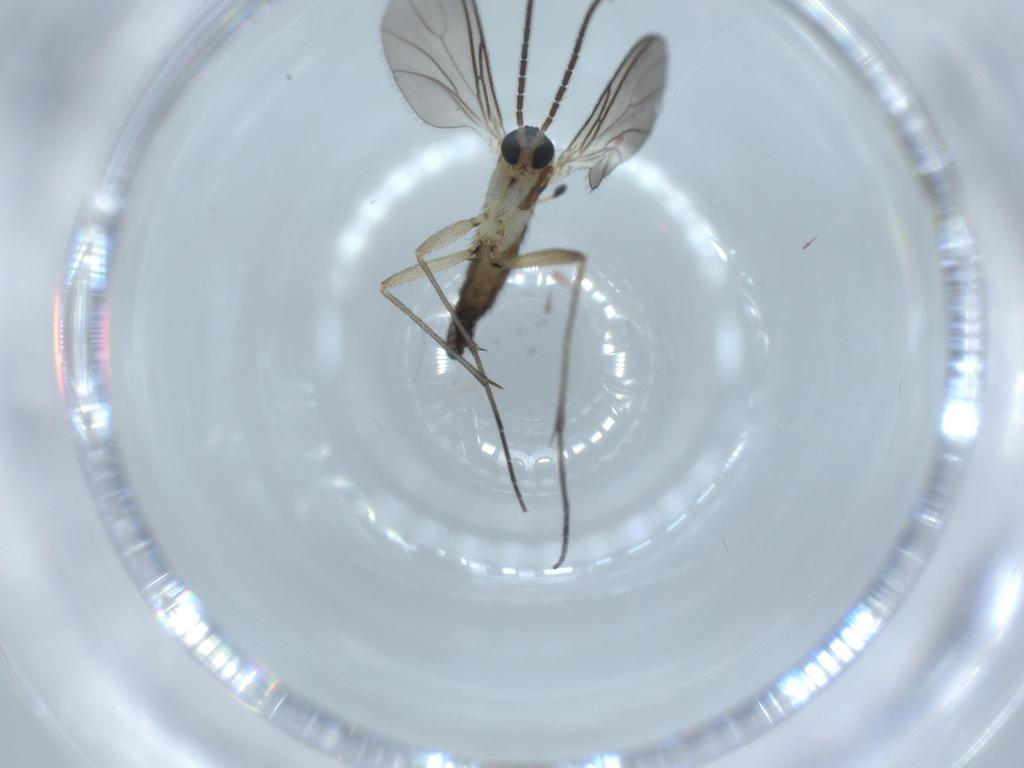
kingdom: Animalia
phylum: Arthropoda
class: Insecta
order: Diptera
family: Sciaridae
